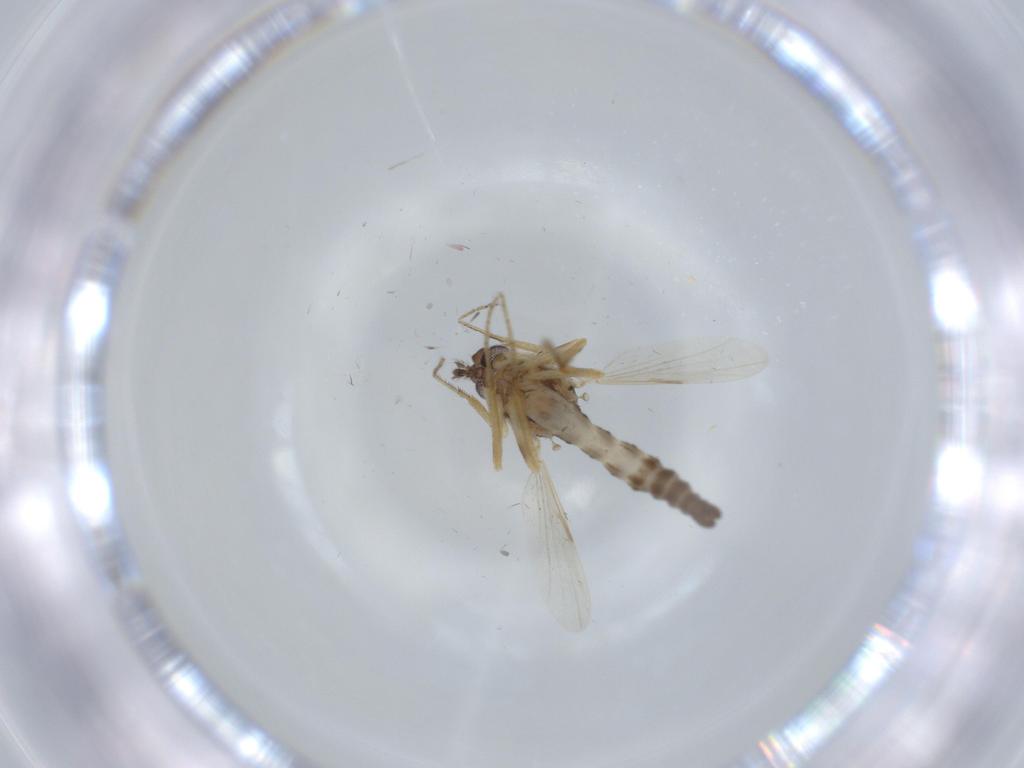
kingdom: Animalia
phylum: Arthropoda
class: Insecta
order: Diptera
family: Ceratopogonidae
